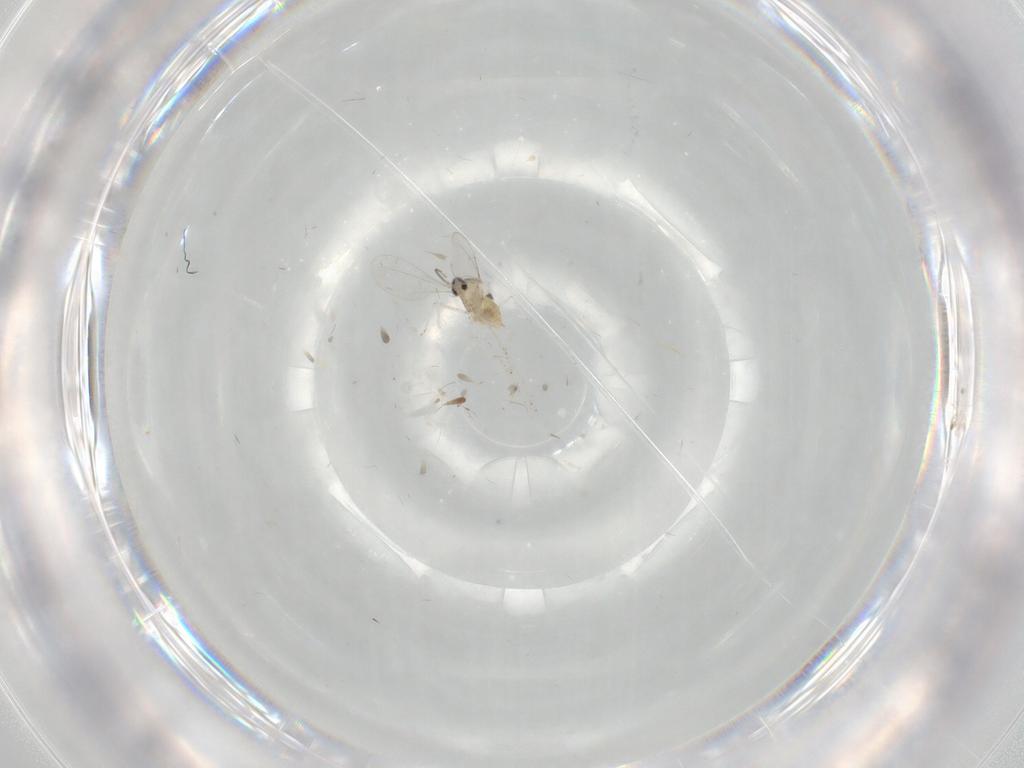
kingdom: Animalia
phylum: Arthropoda
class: Insecta
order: Diptera
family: Cecidomyiidae
